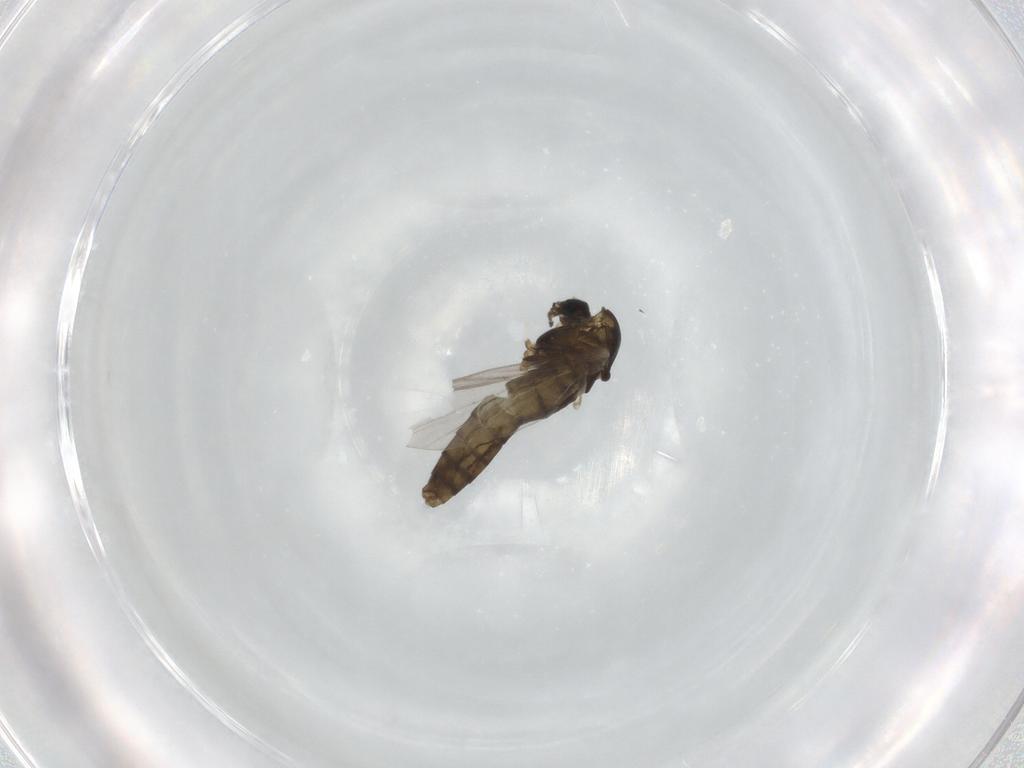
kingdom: Animalia
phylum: Arthropoda
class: Insecta
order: Diptera
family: Chironomidae
